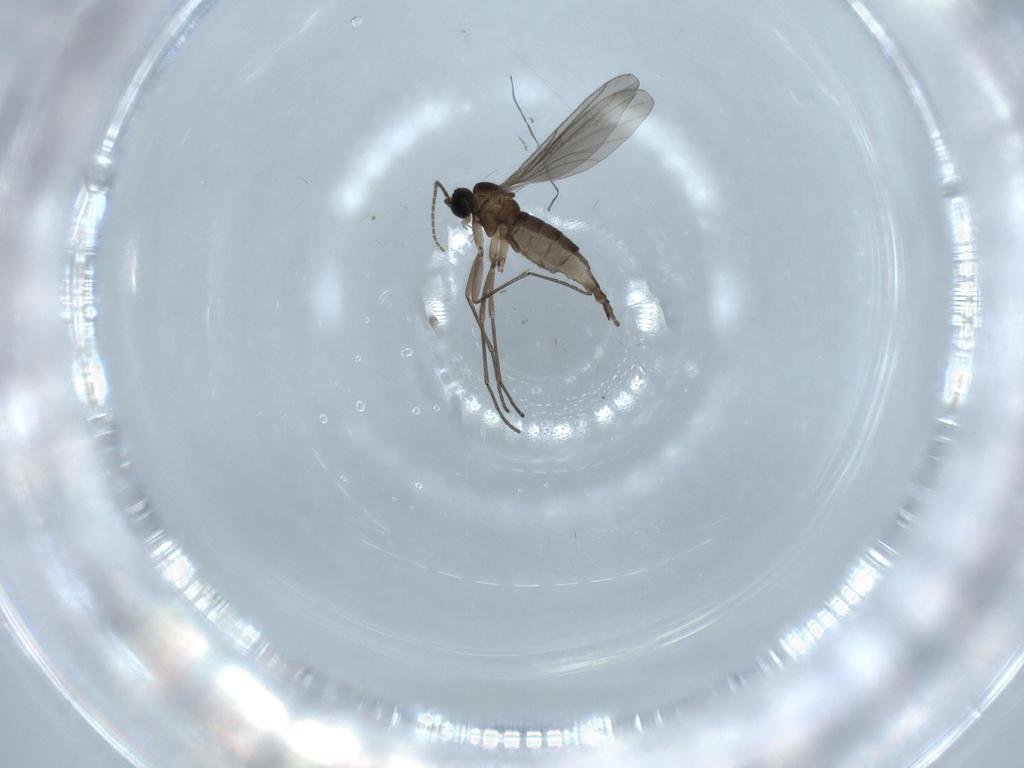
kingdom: Animalia
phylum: Arthropoda
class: Insecta
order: Diptera
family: Sciaridae
